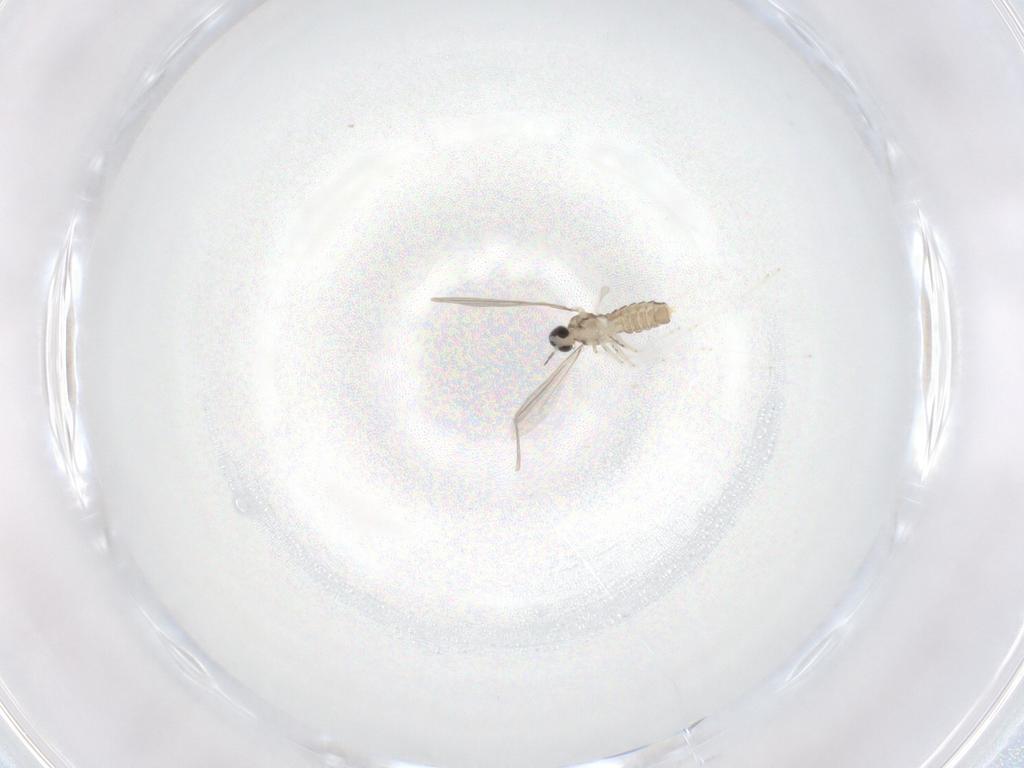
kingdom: Animalia
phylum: Arthropoda
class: Insecta
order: Diptera
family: Cecidomyiidae
